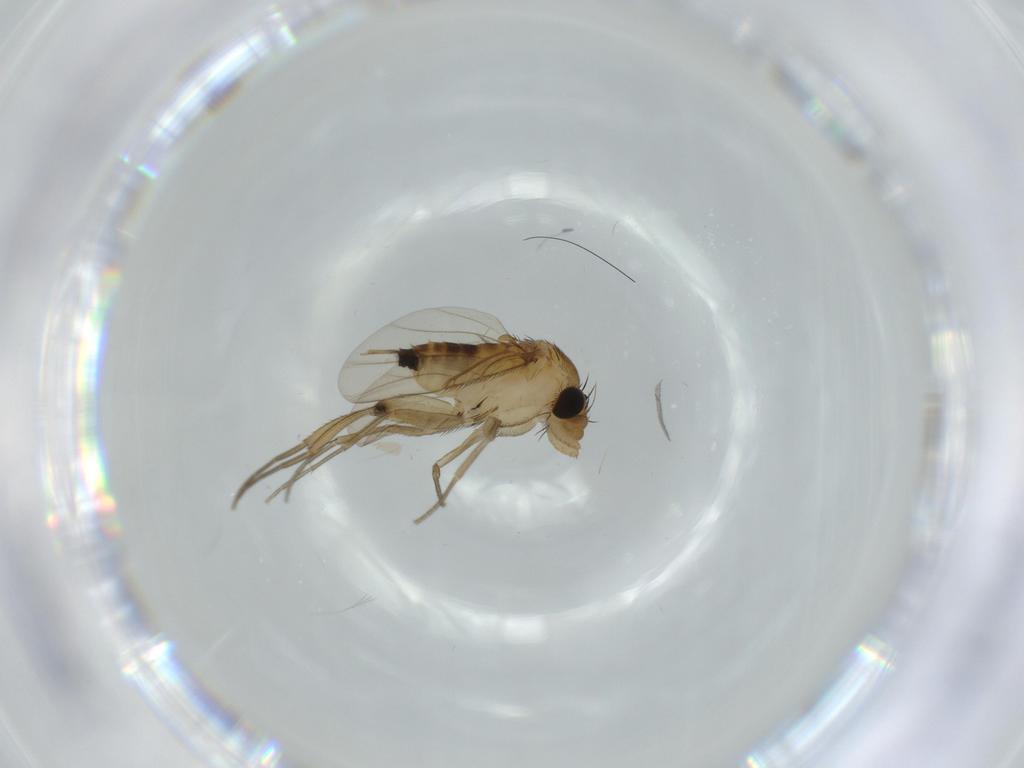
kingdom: Animalia
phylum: Arthropoda
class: Insecta
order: Diptera
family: Phoridae
